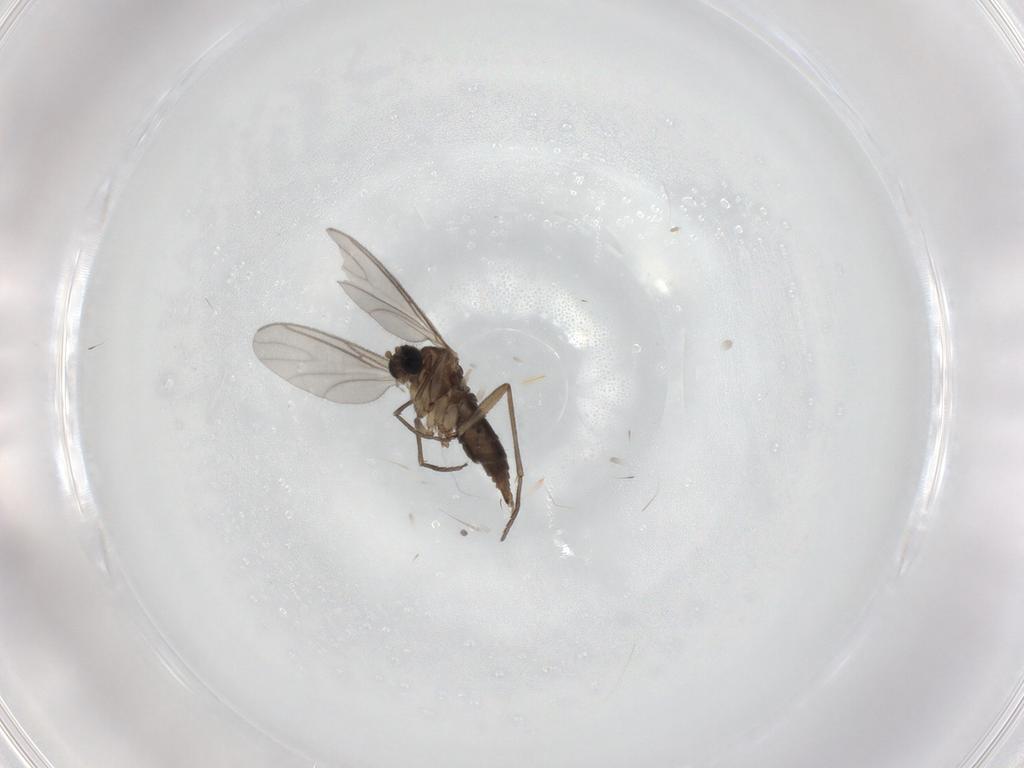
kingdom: Animalia
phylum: Arthropoda
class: Insecta
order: Diptera
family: Sciaridae
